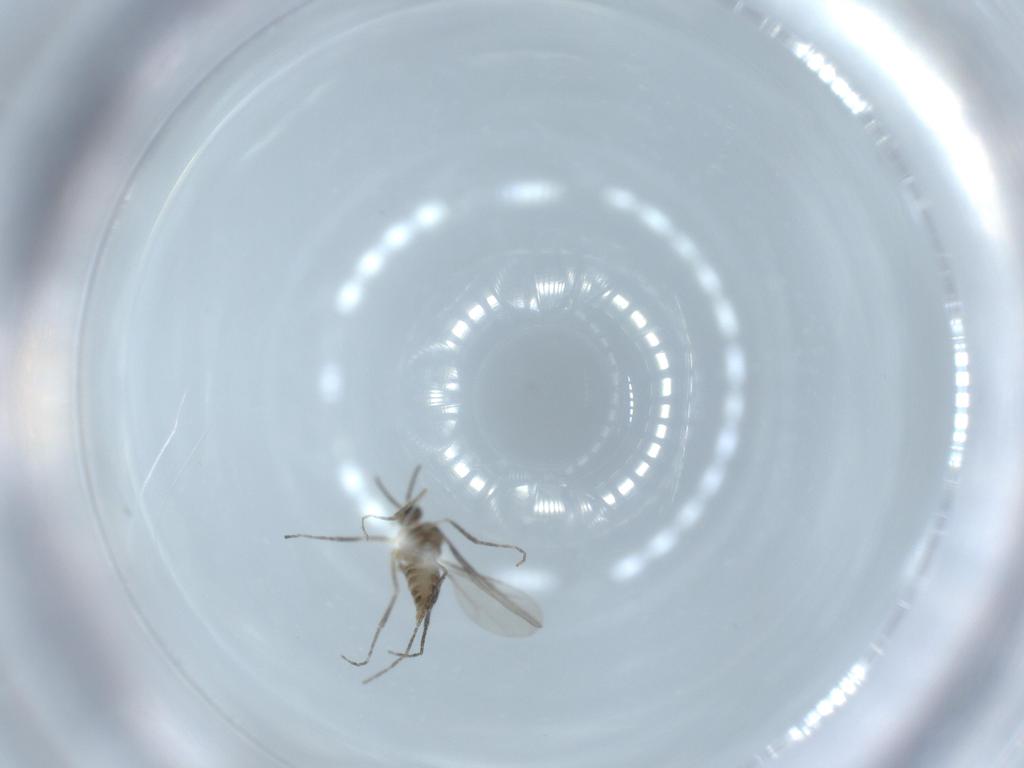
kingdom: Animalia
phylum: Arthropoda
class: Insecta
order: Diptera
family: Cecidomyiidae
